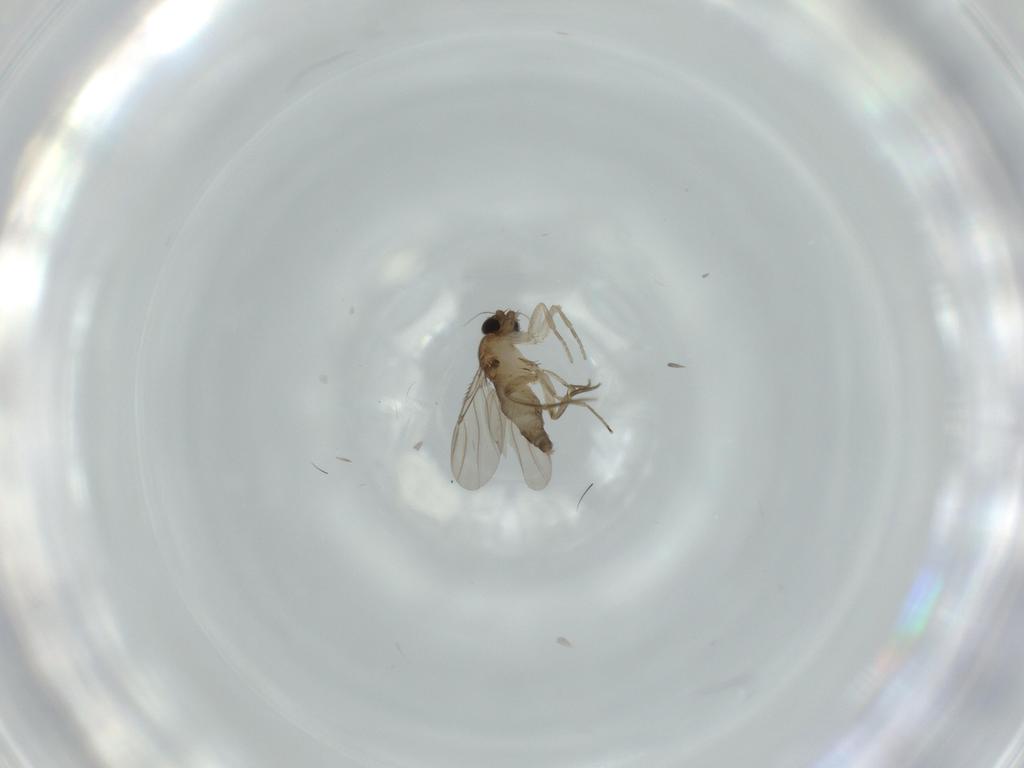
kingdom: Animalia
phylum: Arthropoda
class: Insecta
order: Diptera
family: Phoridae
